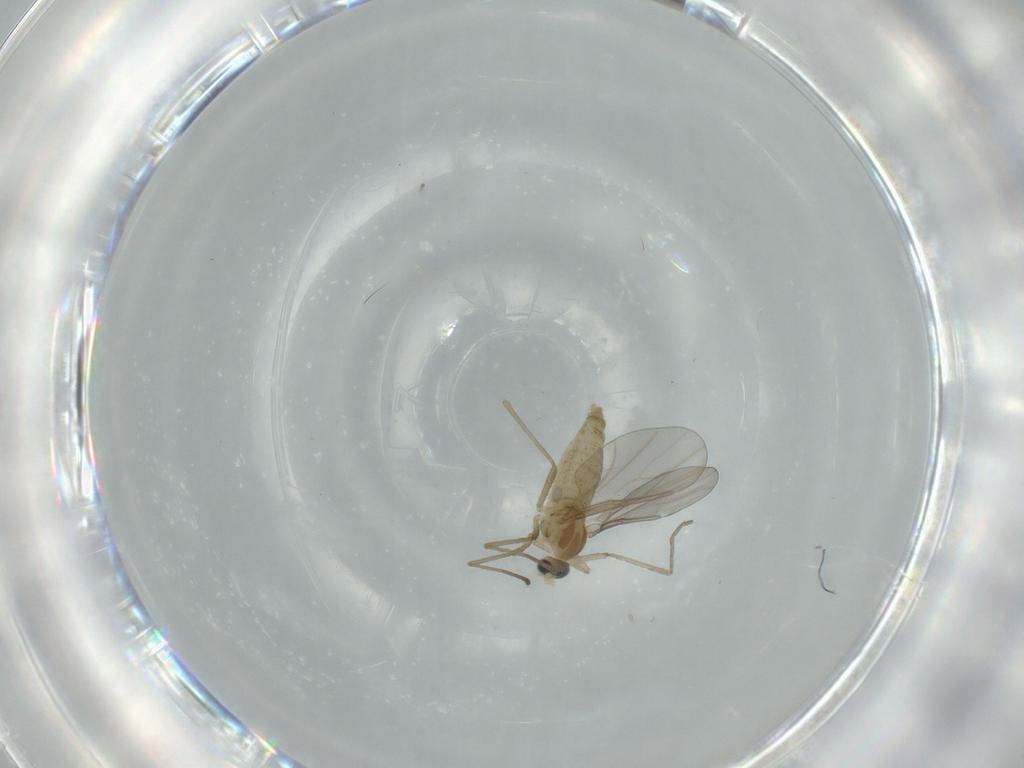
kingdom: Animalia
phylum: Arthropoda
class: Insecta
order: Diptera
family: Cecidomyiidae
